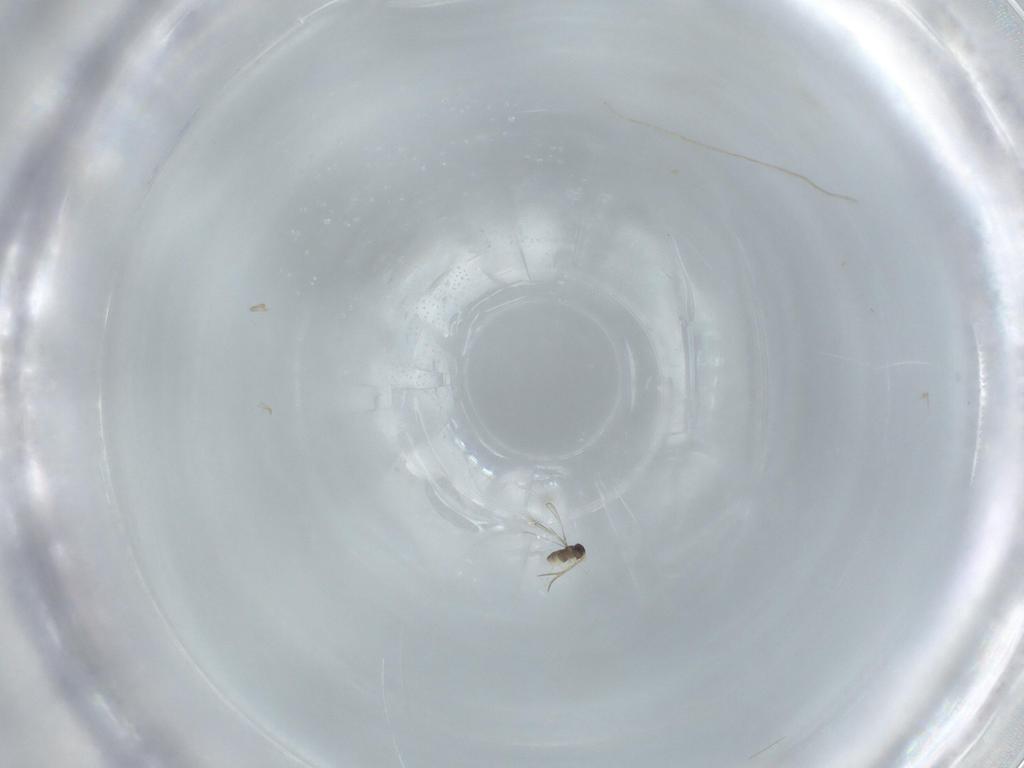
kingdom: Animalia
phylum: Arthropoda
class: Insecta
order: Hymenoptera
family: Mymaridae
